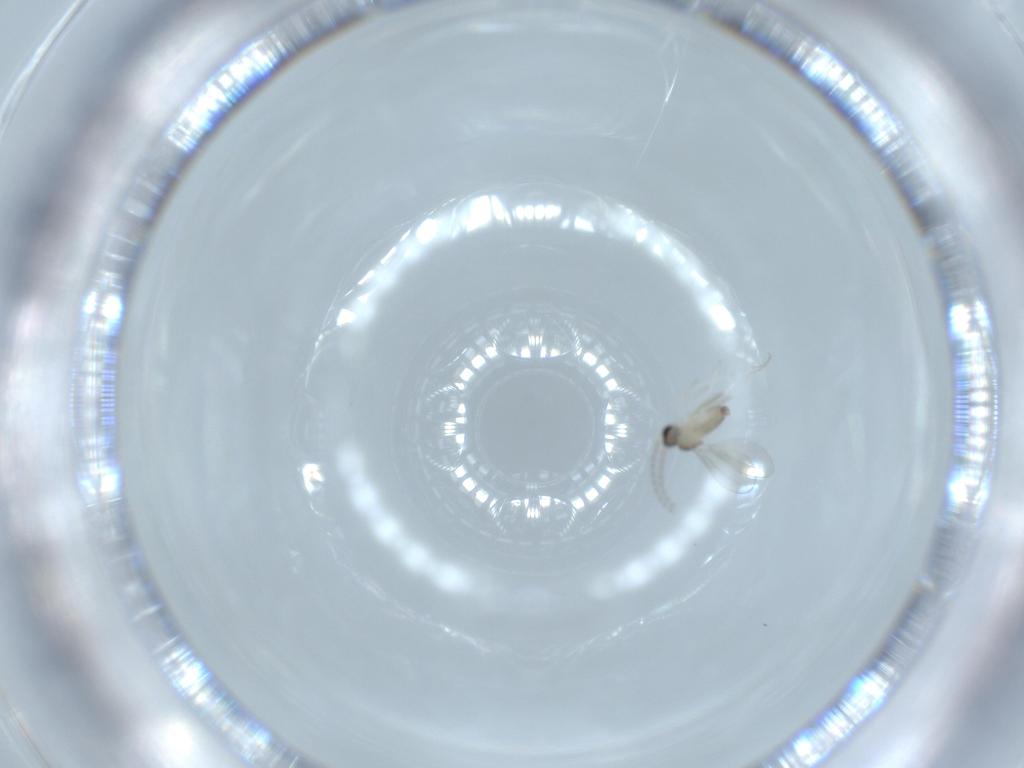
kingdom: Animalia
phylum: Arthropoda
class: Insecta
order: Diptera
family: Cecidomyiidae
